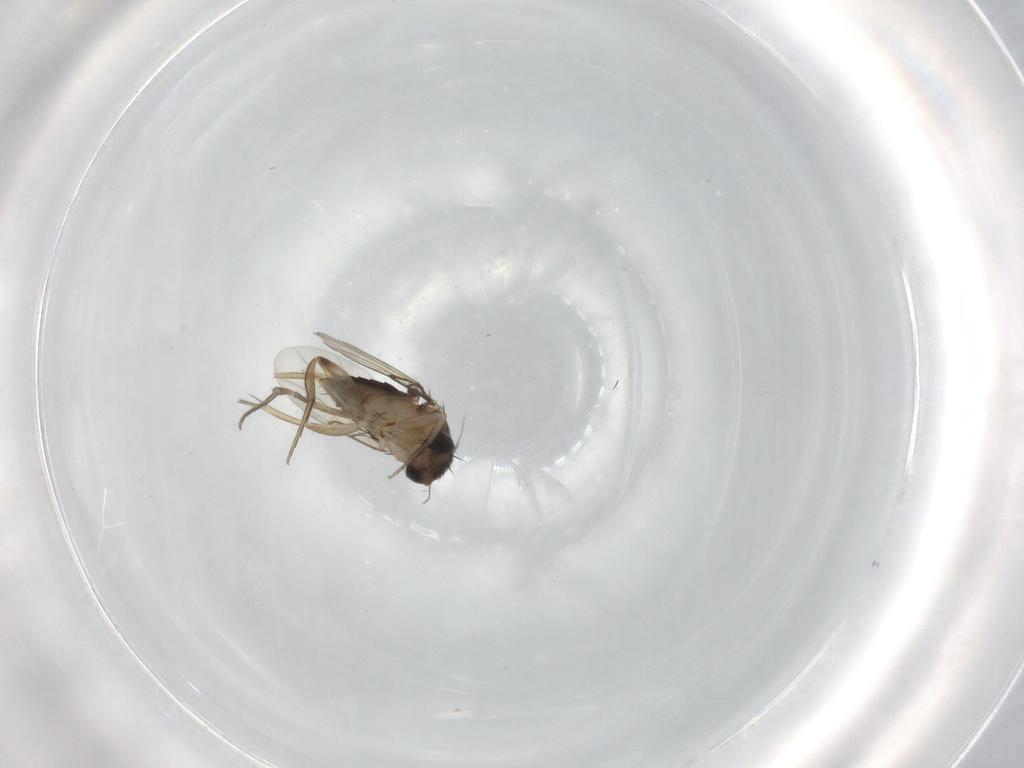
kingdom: Animalia
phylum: Arthropoda
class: Insecta
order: Diptera
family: Phoridae
